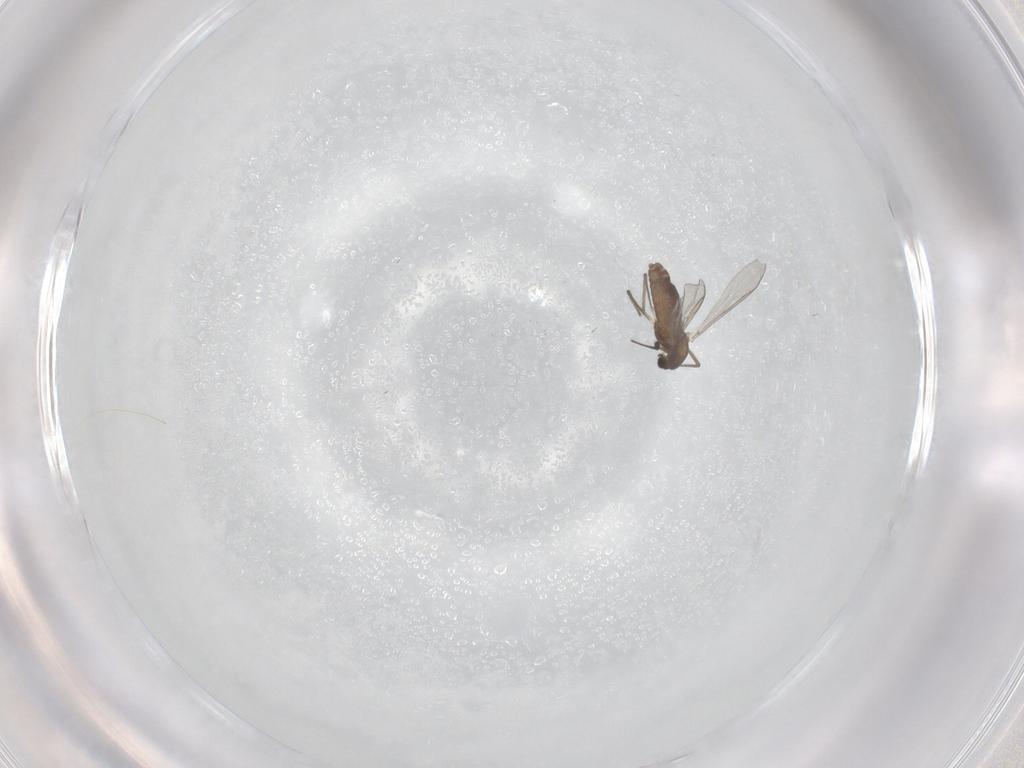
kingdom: Animalia
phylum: Arthropoda
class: Insecta
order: Diptera
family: Chironomidae
